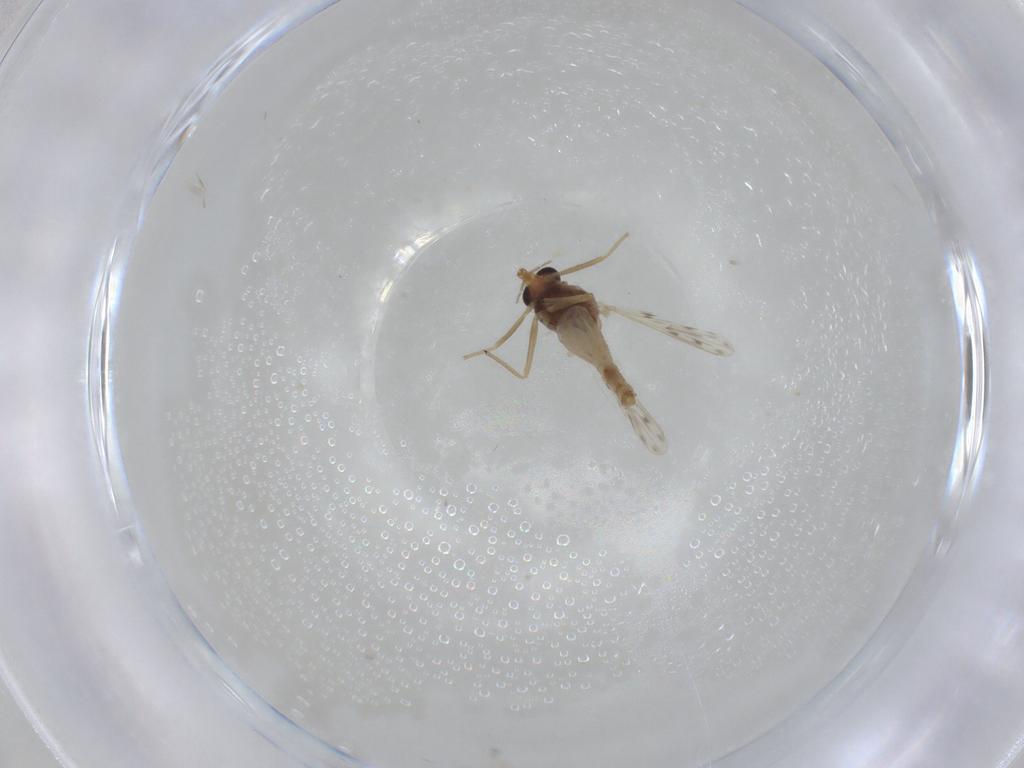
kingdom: Animalia
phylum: Arthropoda
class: Insecta
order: Diptera
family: Chironomidae
